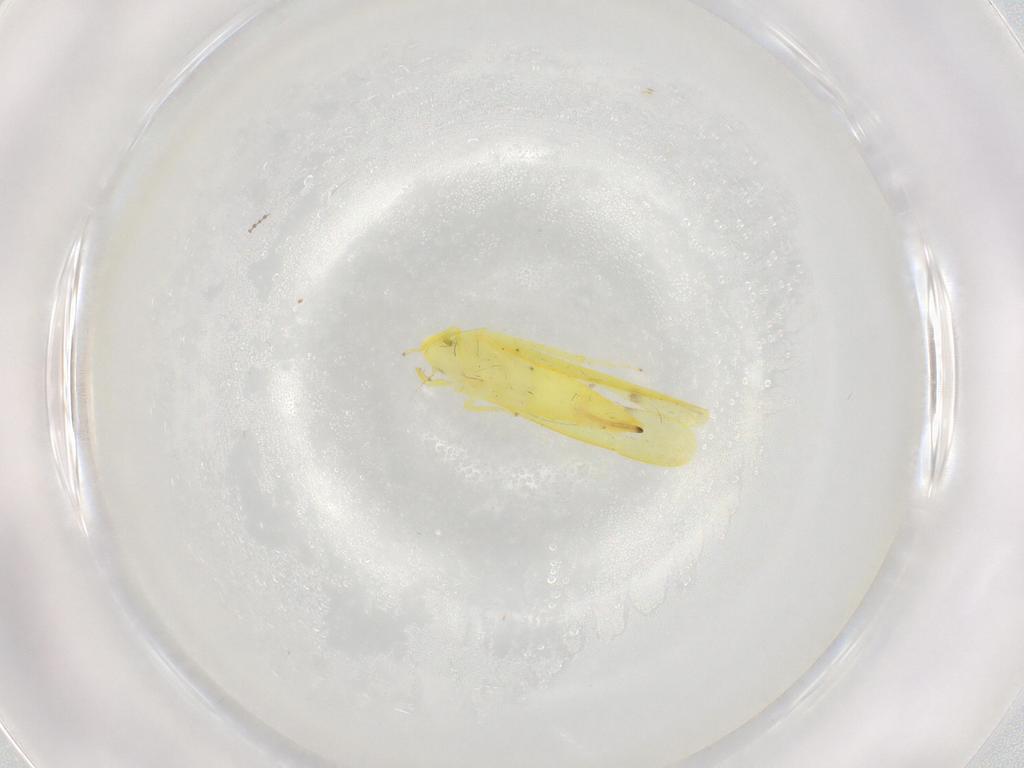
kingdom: Animalia
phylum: Arthropoda
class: Insecta
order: Hemiptera
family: Cicadellidae
